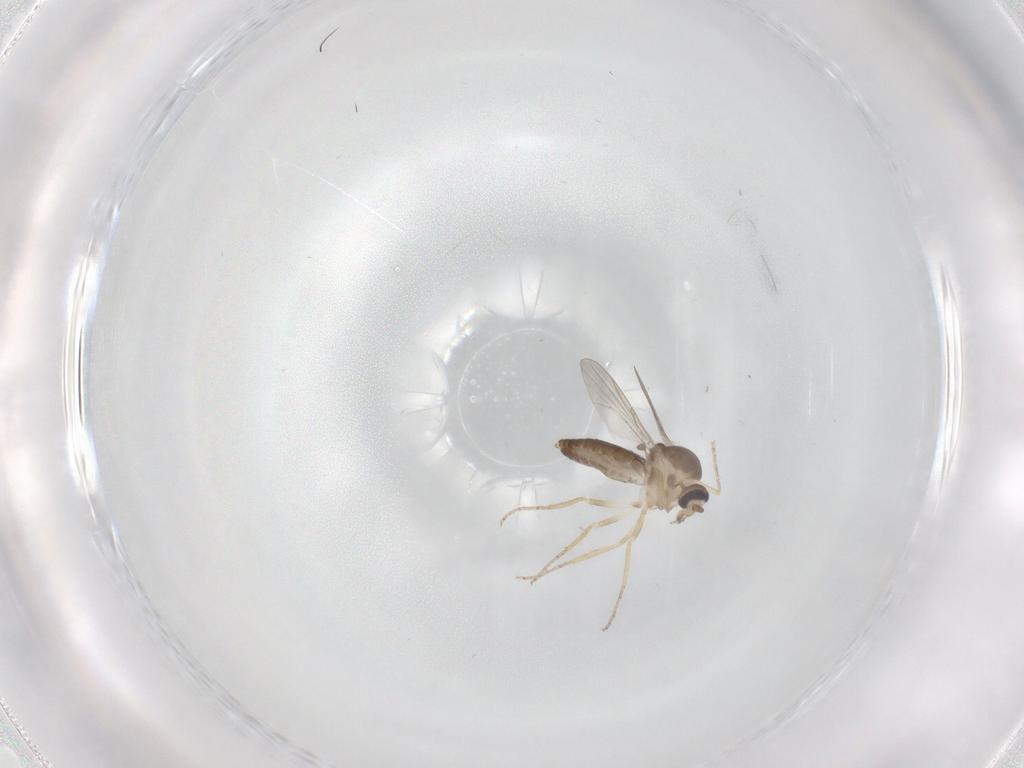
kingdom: Animalia
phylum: Arthropoda
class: Insecta
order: Diptera
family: Ceratopogonidae
